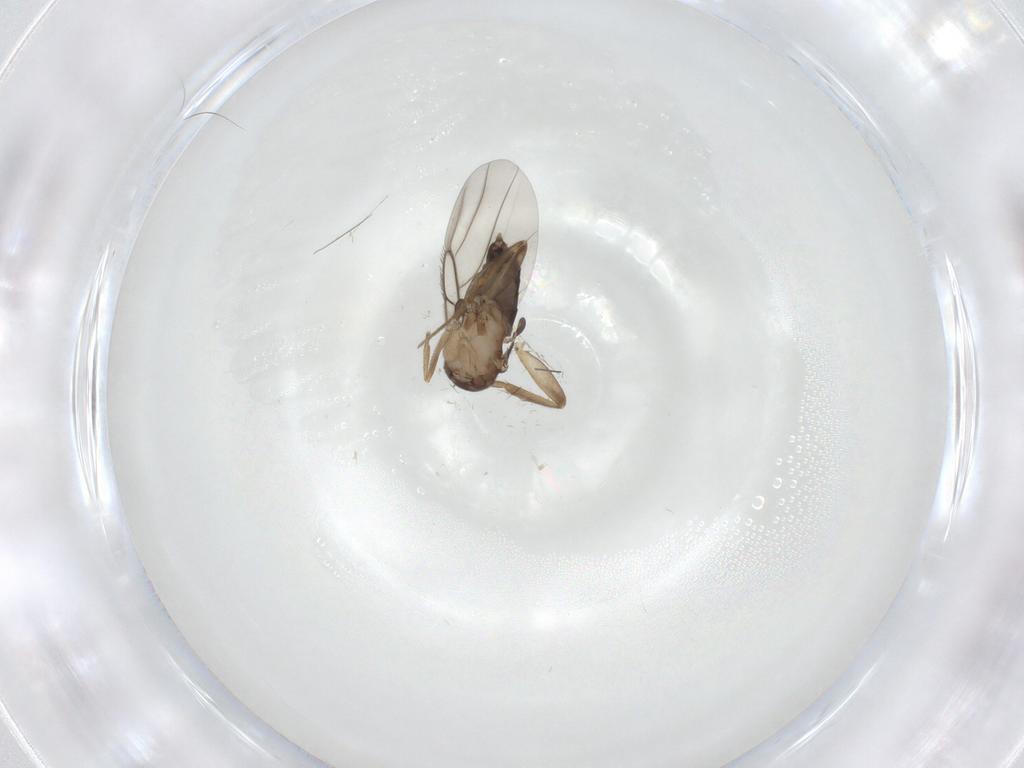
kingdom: Animalia
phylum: Arthropoda
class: Insecta
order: Diptera
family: Phoridae
